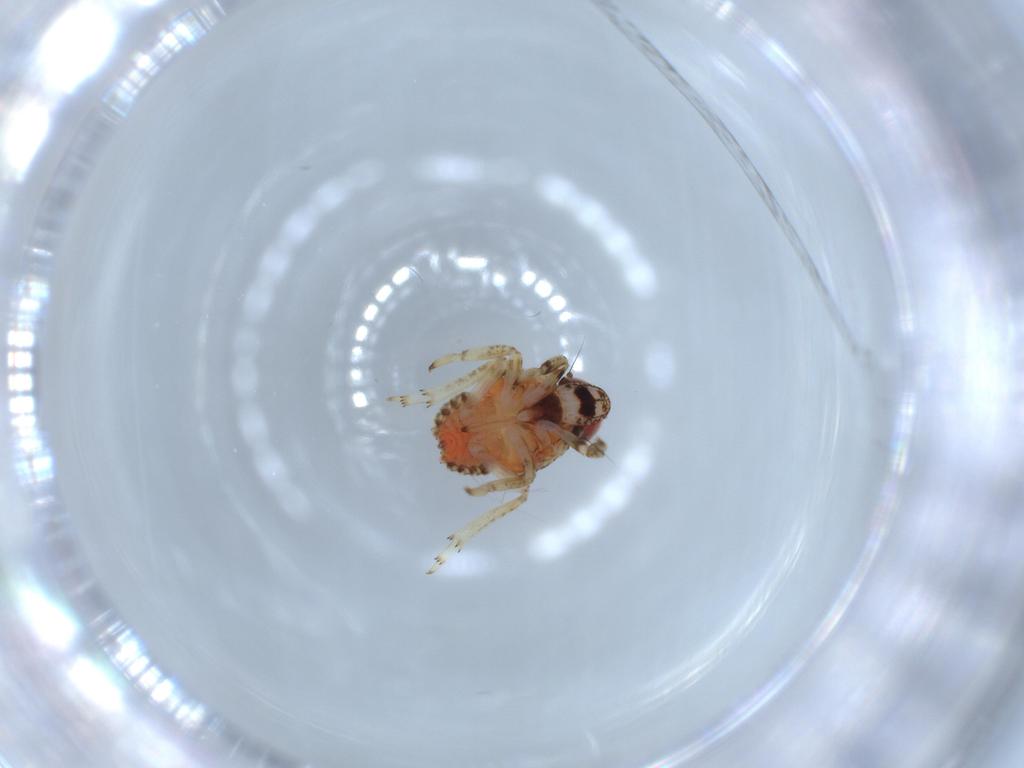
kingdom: Animalia
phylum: Arthropoda
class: Insecta
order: Hemiptera
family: Issidae
